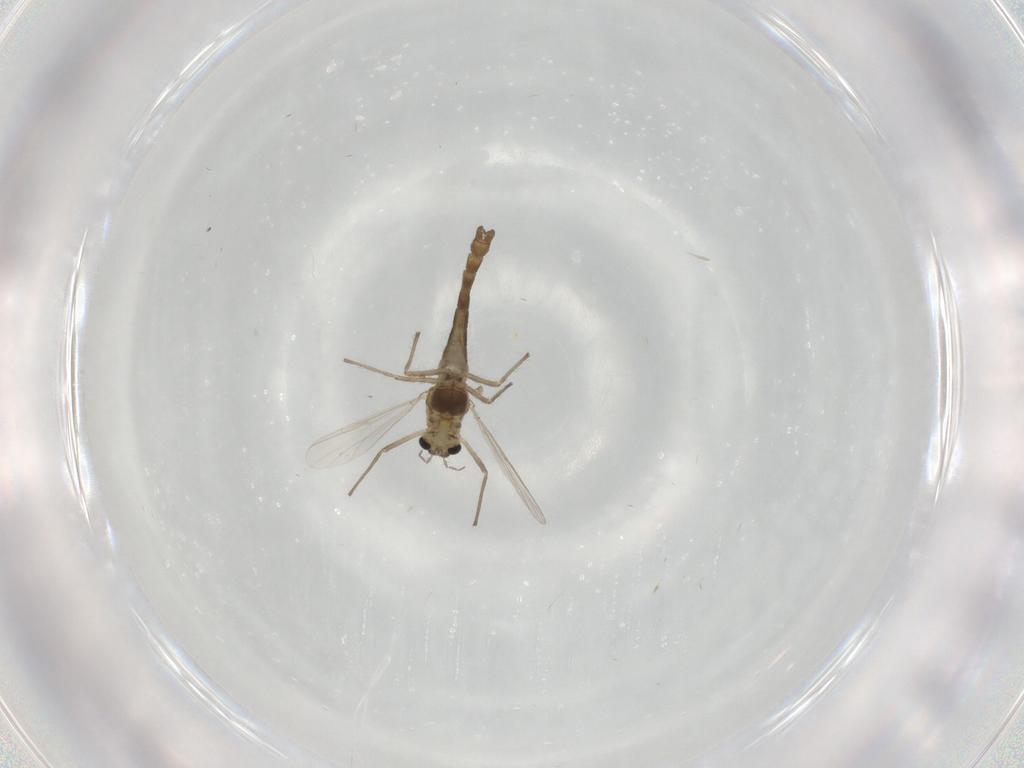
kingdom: Animalia
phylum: Arthropoda
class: Insecta
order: Diptera
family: Chironomidae
